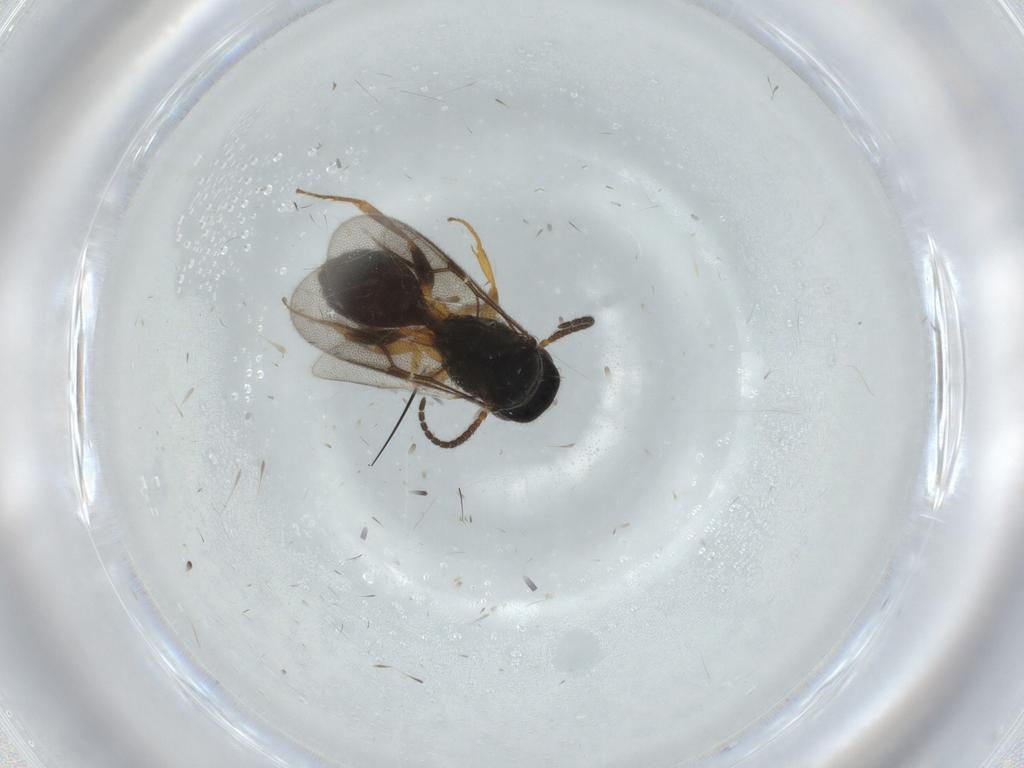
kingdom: Animalia
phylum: Arthropoda
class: Insecta
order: Hymenoptera
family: Bethylidae
